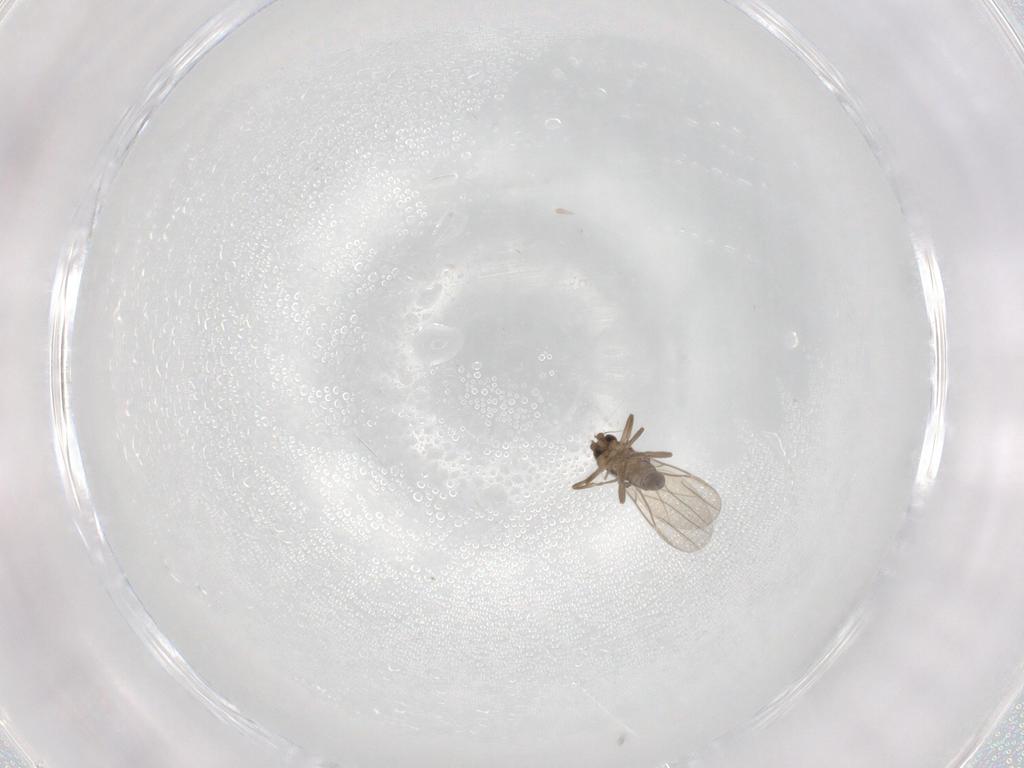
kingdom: Animalia
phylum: Arthropoda
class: Insecta
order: Diptera
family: Phoridae
